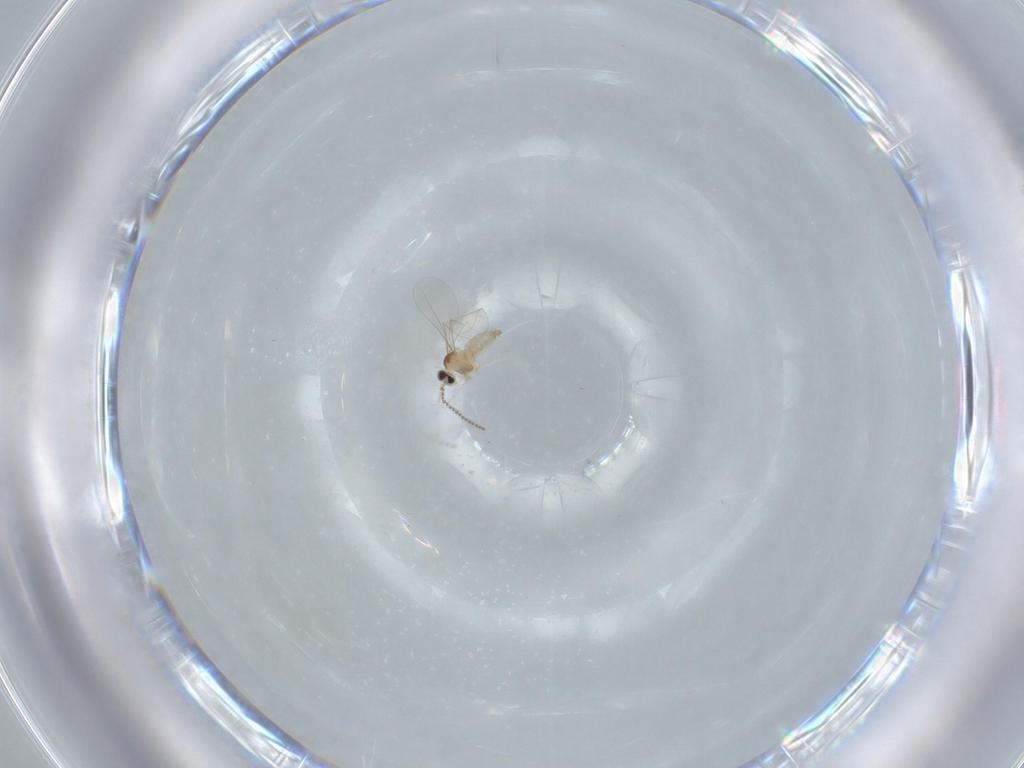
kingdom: Animalia
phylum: Arthropoda
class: Insecta
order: Diptera
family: Cecidomyiidae
